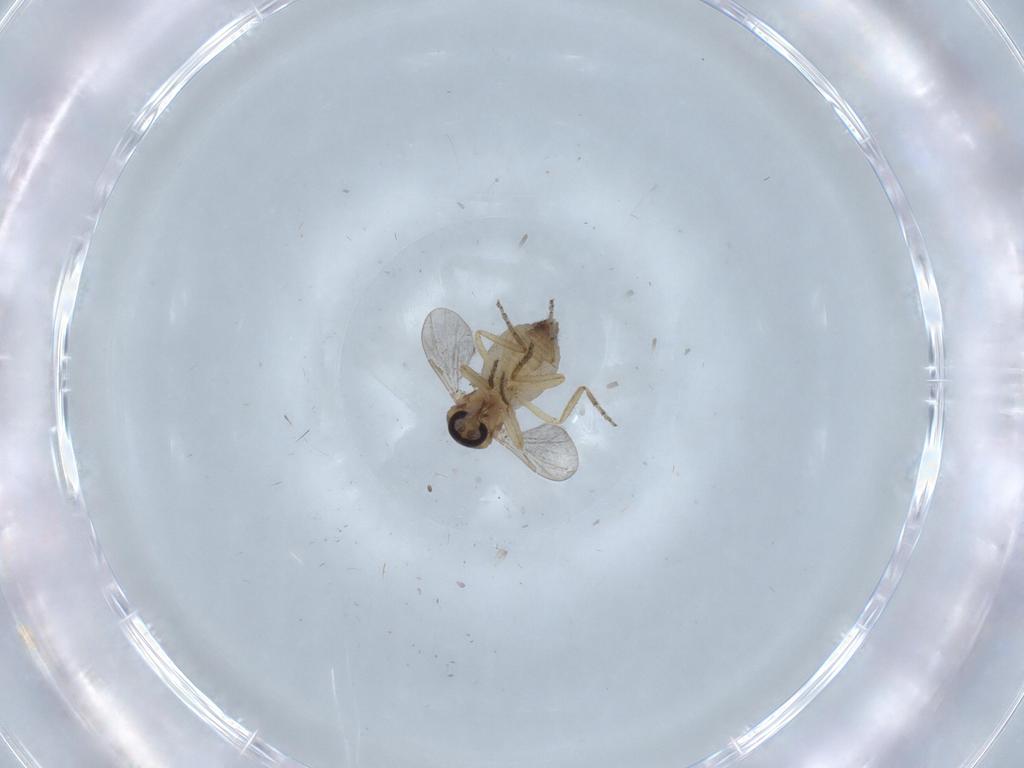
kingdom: Animalia
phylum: Arthropoda
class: Insecta
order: Diptera
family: Ceratopogonidae
